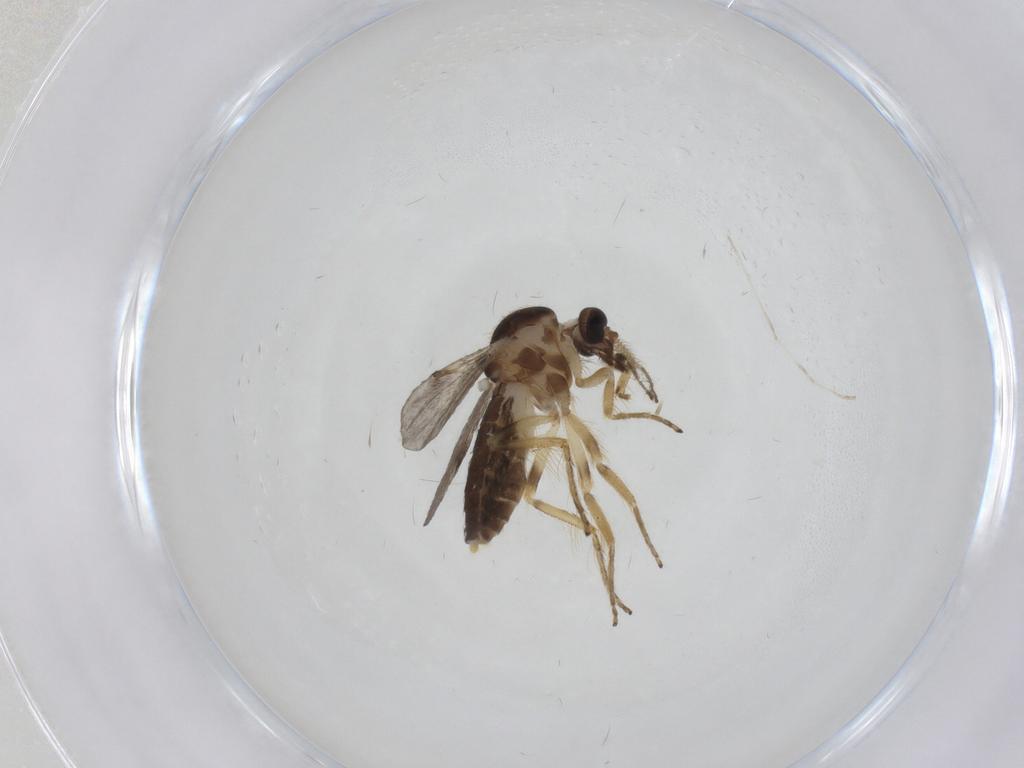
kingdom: Animalia
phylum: Arthropoda
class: Insecta
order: Diptera
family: Ceratopogonidae
